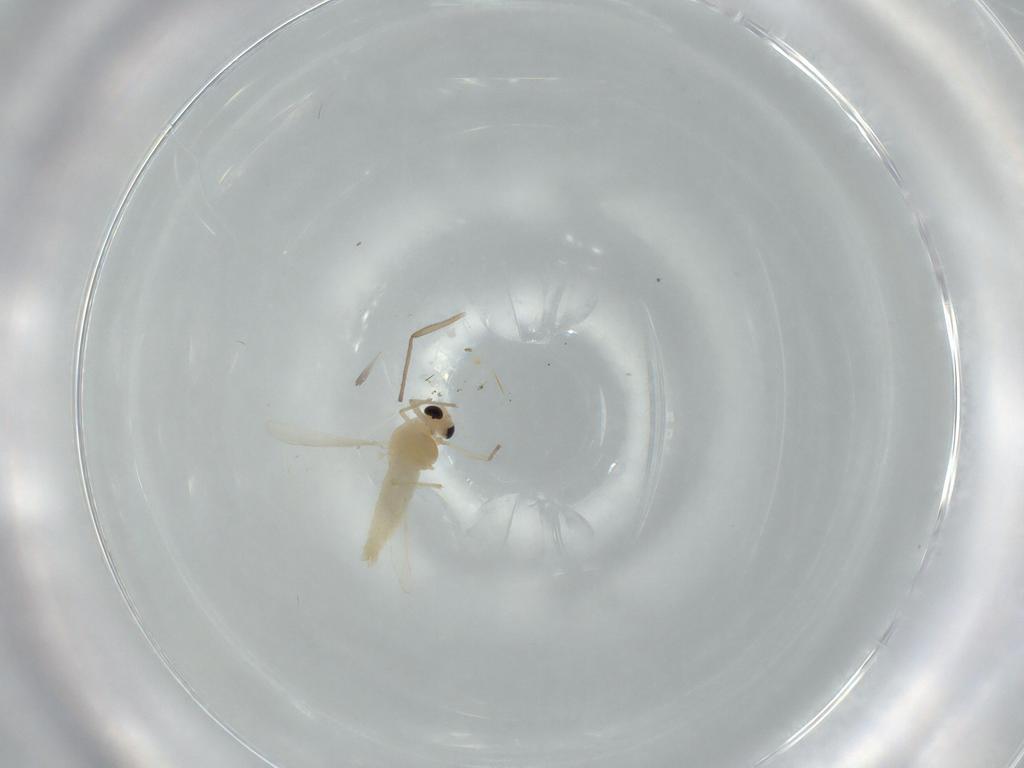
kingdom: Animalia
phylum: Arthropoda
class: Insecta
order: Diptera
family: Chironomidae
